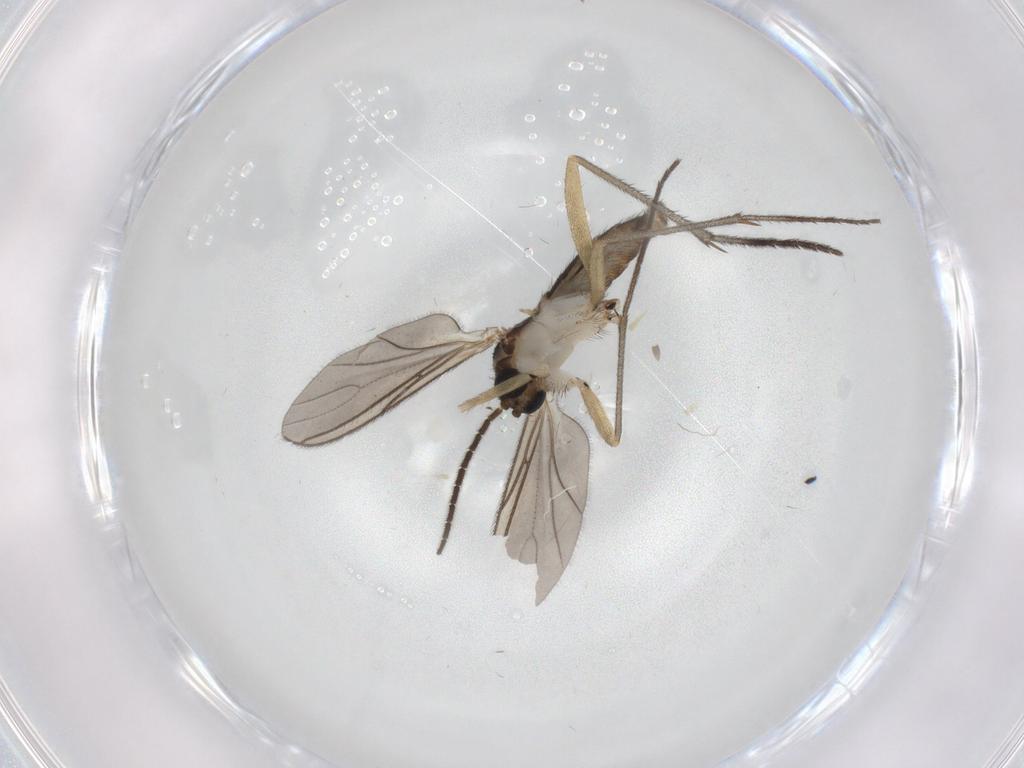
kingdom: Animalia
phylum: Arthropoda
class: Insecta
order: Diptera
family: Sciaridae
